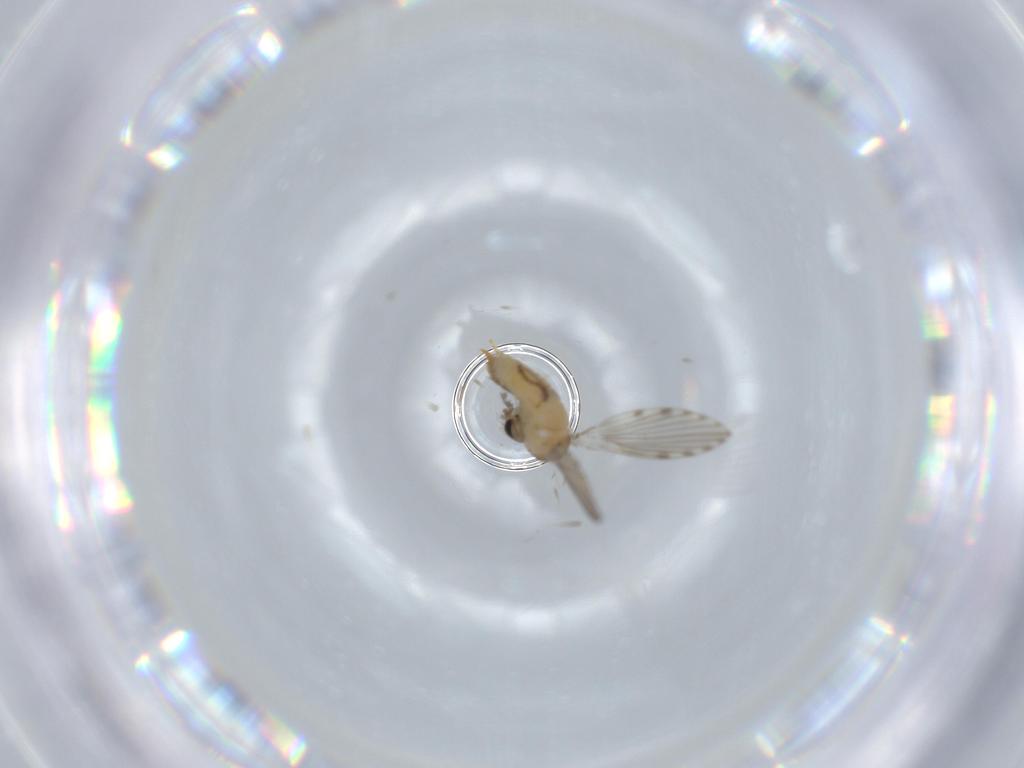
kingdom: Animalia
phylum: Arthropoda
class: Insecta
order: Diptera
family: Psychodidae
